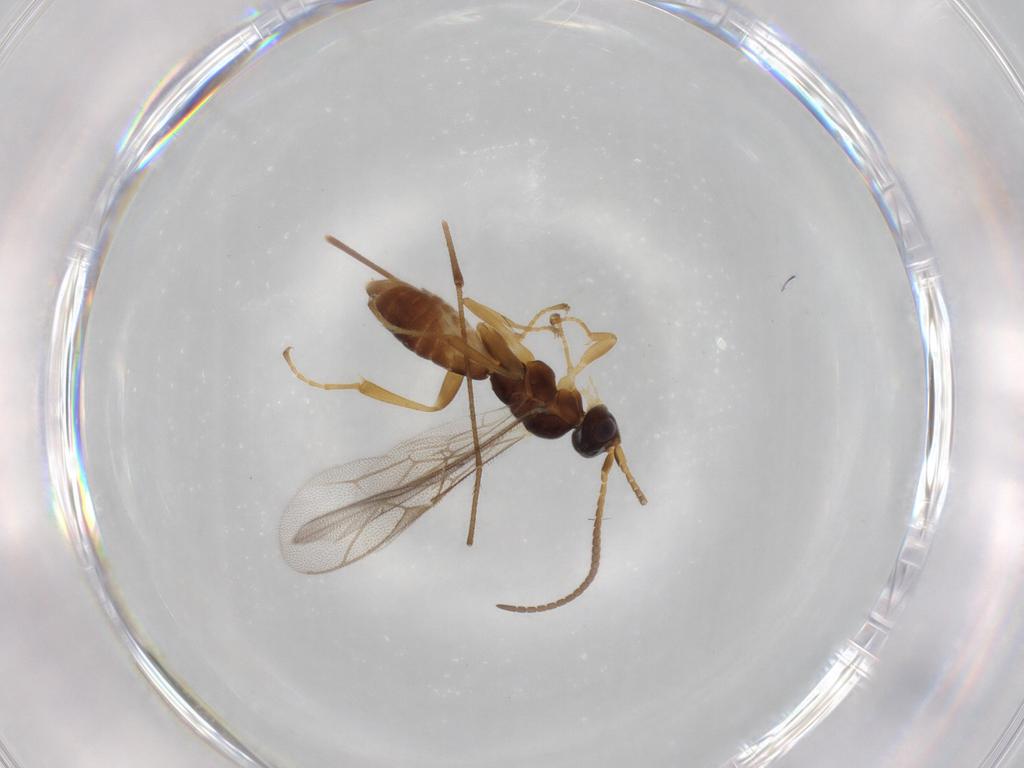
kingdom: Animalia
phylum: Arthropoda
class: Insecta
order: Hymenoptera
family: Ichneumonidae
